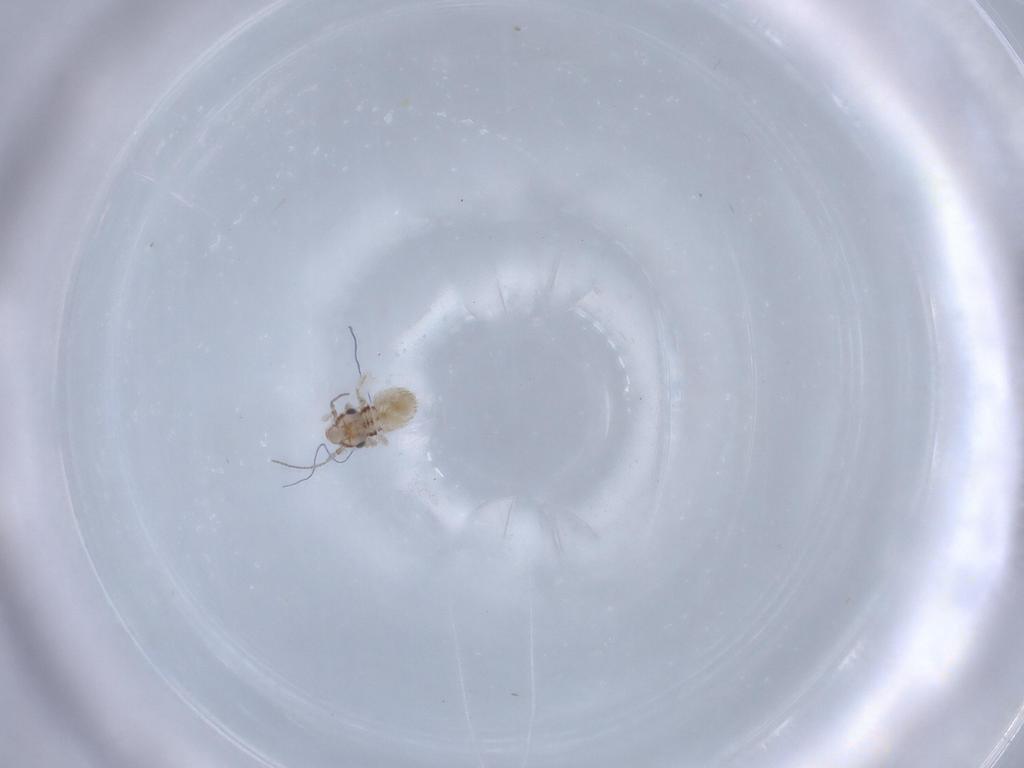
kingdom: Animalia
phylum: Arthropoda
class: Insecta
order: Psocodea
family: Lepidopsocidae
